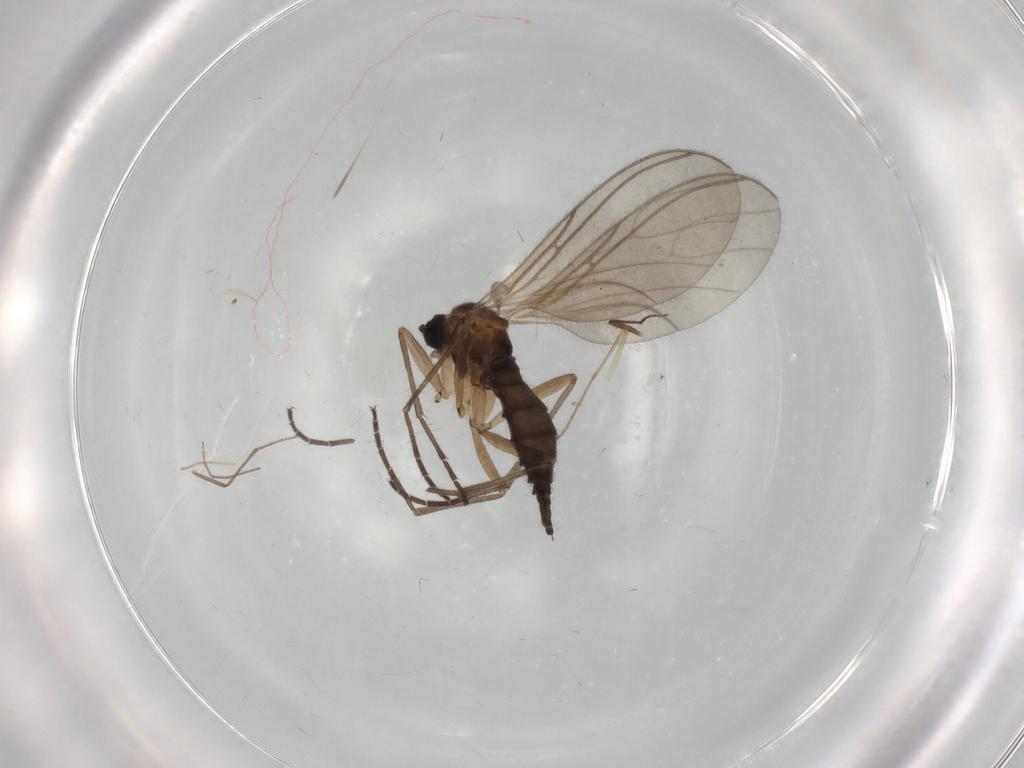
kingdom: Animalia
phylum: Arthropoda
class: Insecta
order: Diptera
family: Sciaridae
